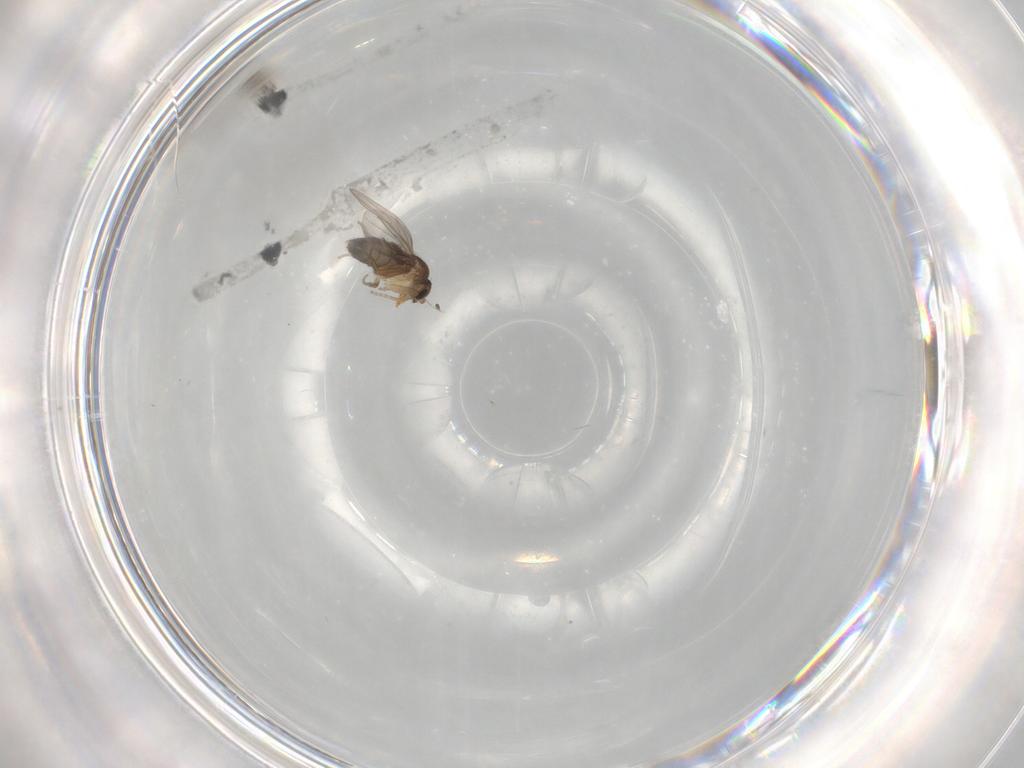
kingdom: Animalia
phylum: Arthropoda
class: Insecta
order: Diptera
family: Phoridae
